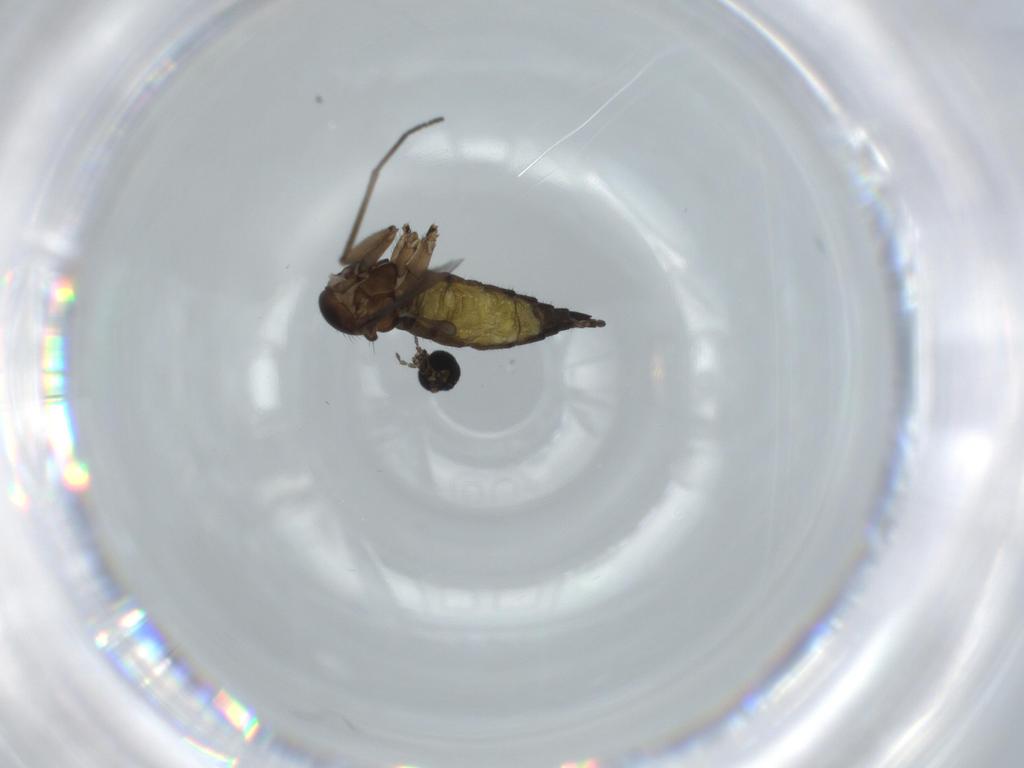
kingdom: Animalia
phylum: Arthropoda
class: Insecta
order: Diptera
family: Sciaridae
